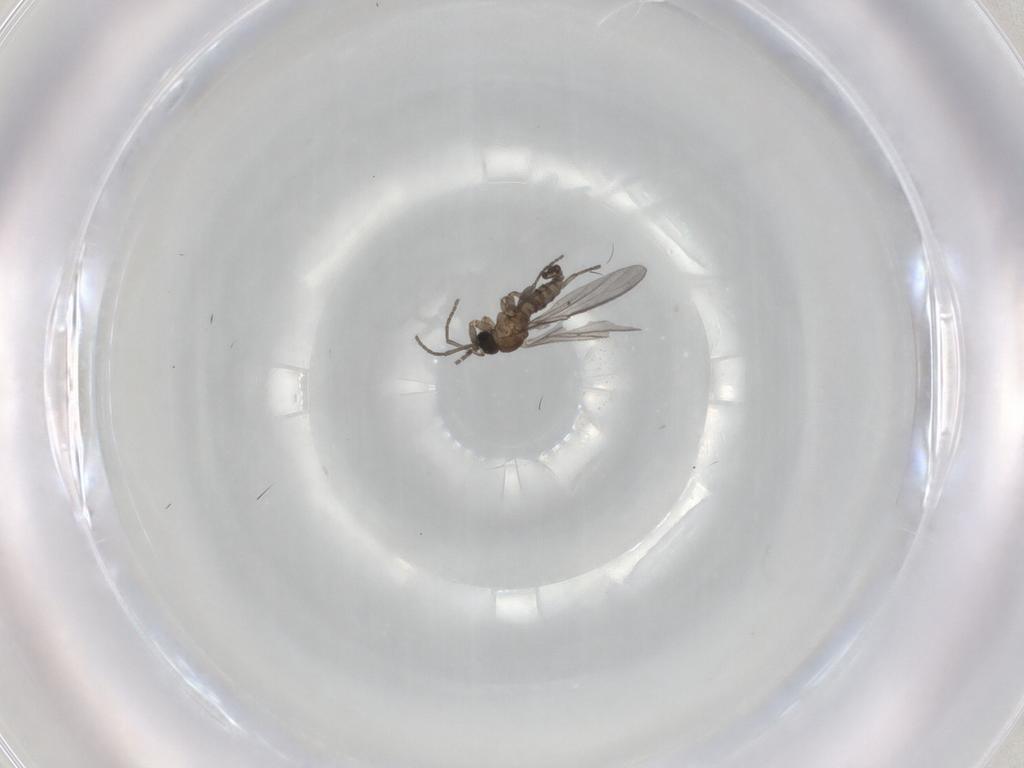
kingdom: Animalia
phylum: Arthropoda
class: Insecta
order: Diptera
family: Sciaridae
